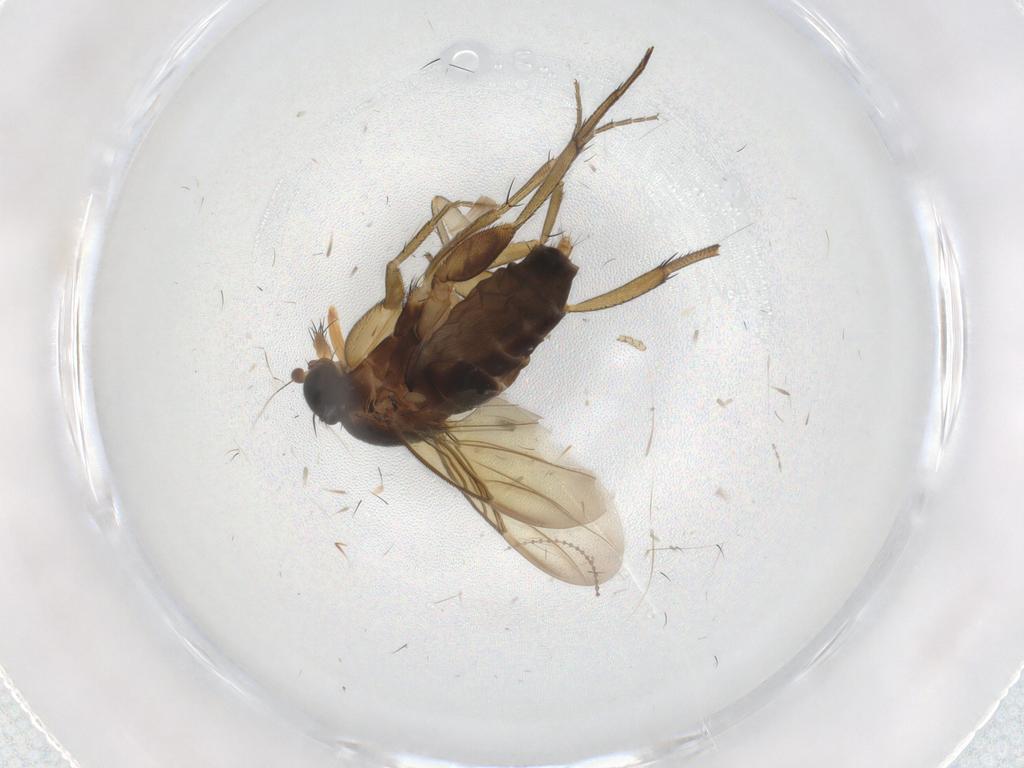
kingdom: Animalia
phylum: Arthropoda
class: Insecta
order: Diptera
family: Cecidomyiidae
